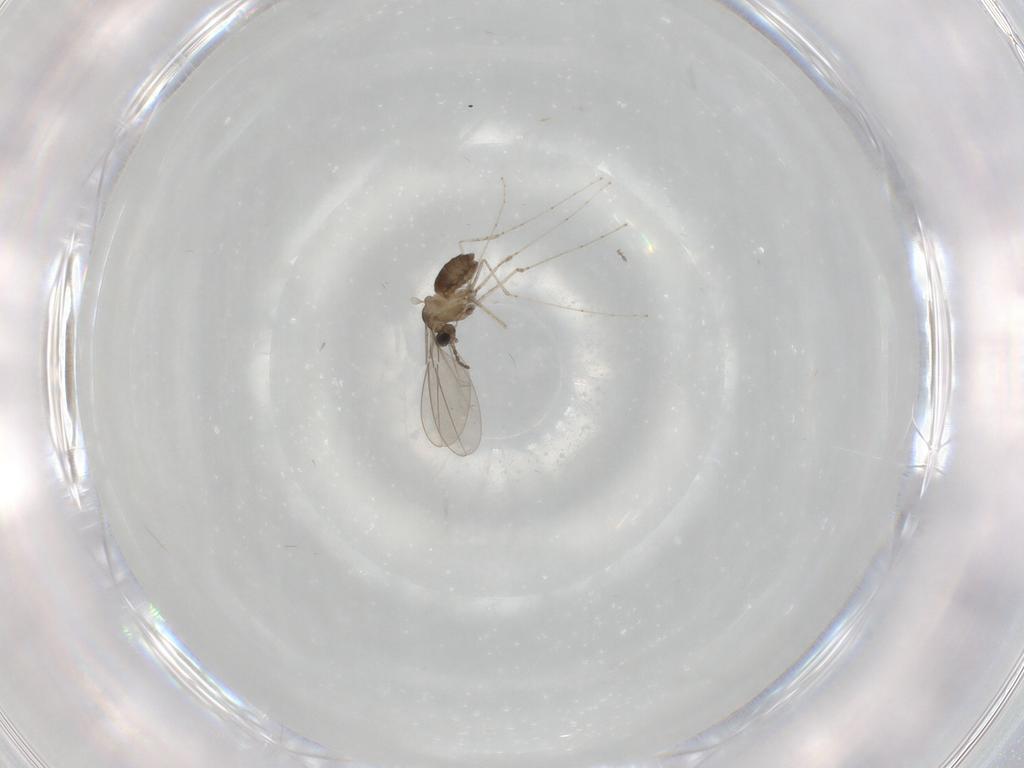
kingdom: Animalia
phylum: Arthropoda
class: Insecta
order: Diptera
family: Cecidomyiidae
